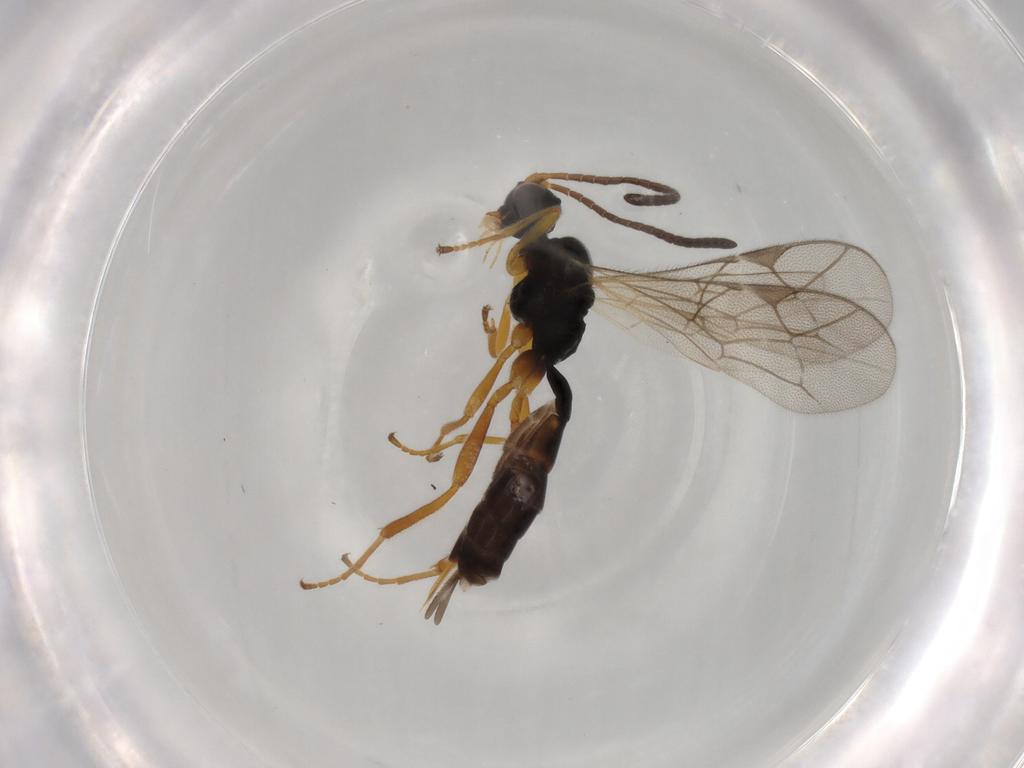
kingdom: Animalia
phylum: Arthropoda
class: Insecta
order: Hymenoptera
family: Ichneumonidae
